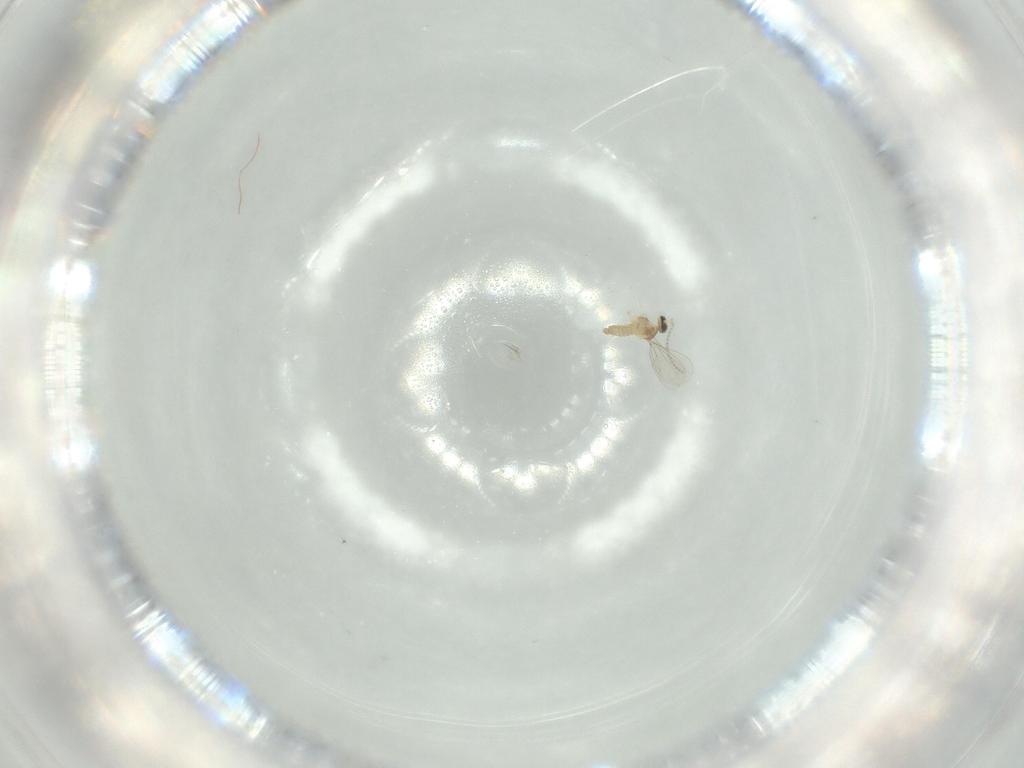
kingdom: Animalia
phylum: Arthropoda
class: Insecta
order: Diptera
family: Cecidomyiidae
